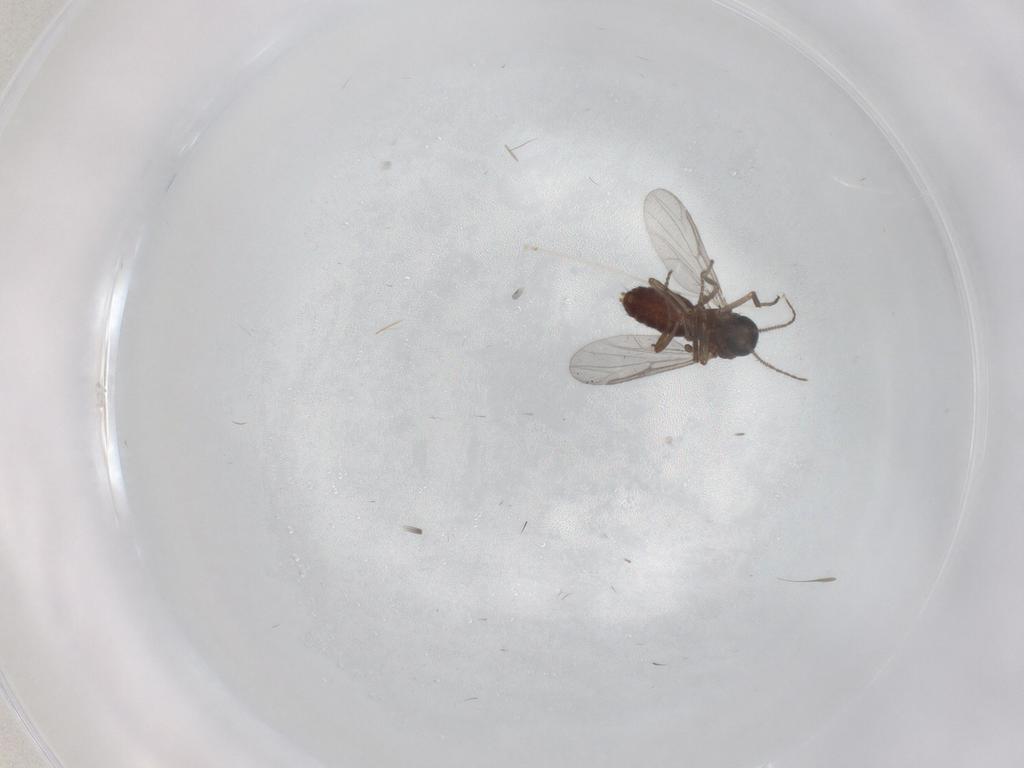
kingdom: Animalia
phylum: Arthropoda
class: Insecta
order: Diptera
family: Ceratopogonidae
